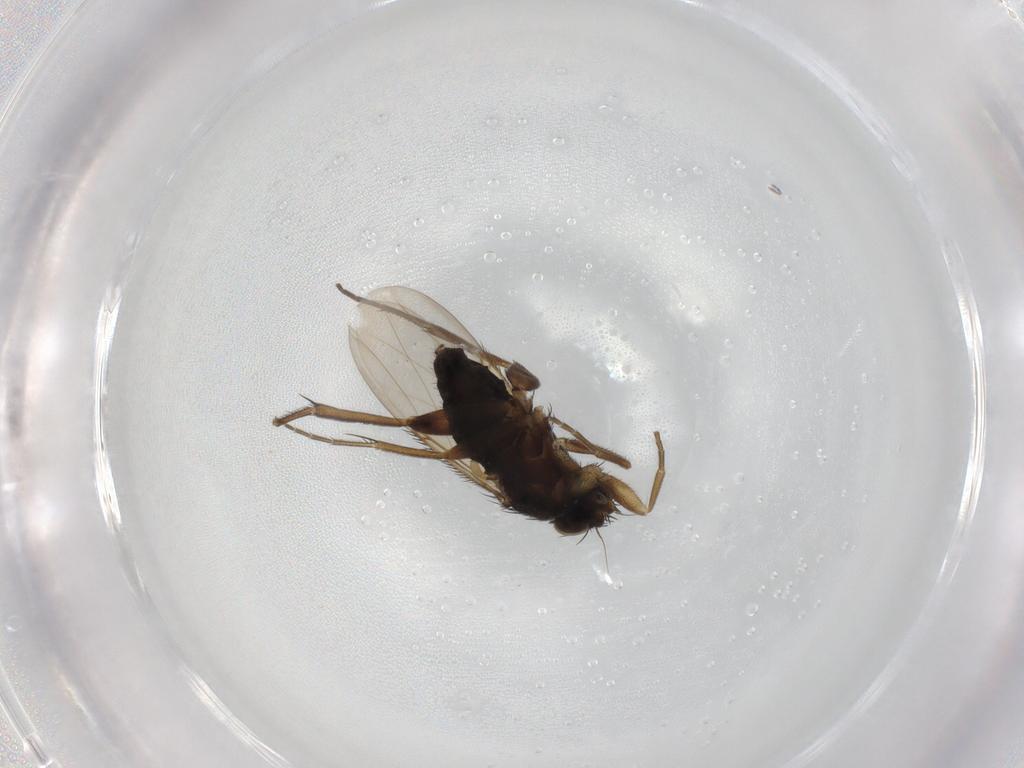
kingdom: Animalia
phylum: Arthropoda
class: Insecta
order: Diptera
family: Phoridae
